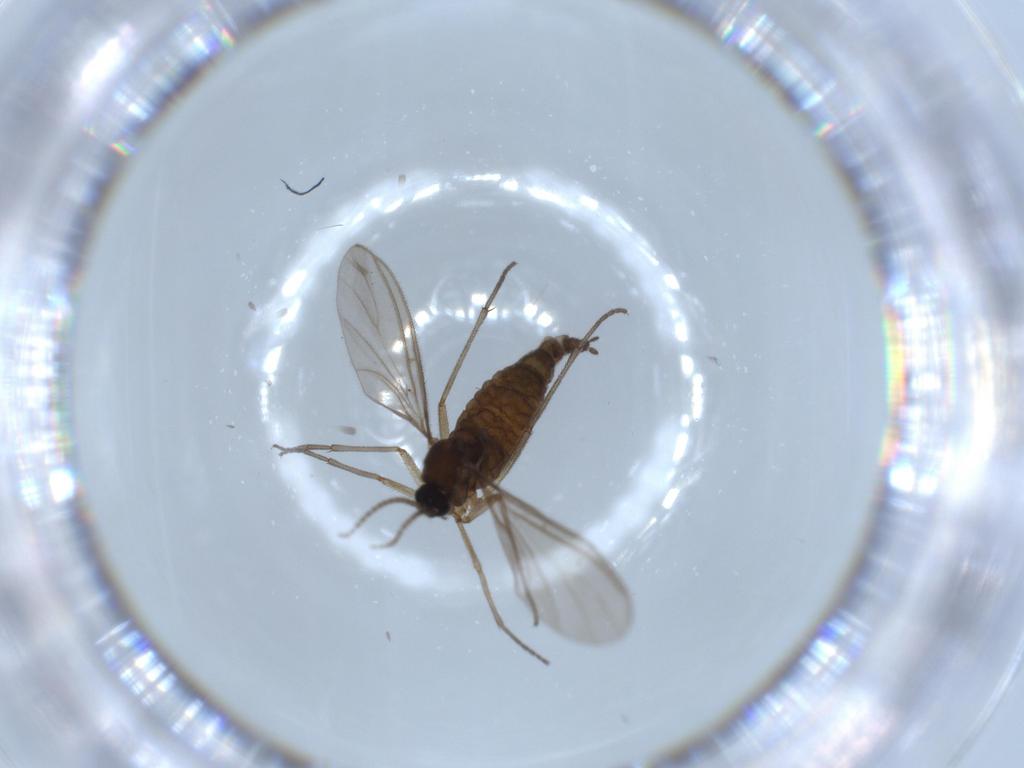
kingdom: Animalia
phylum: Arthropoda
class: Insecta
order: Diptera
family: Sciaridae
